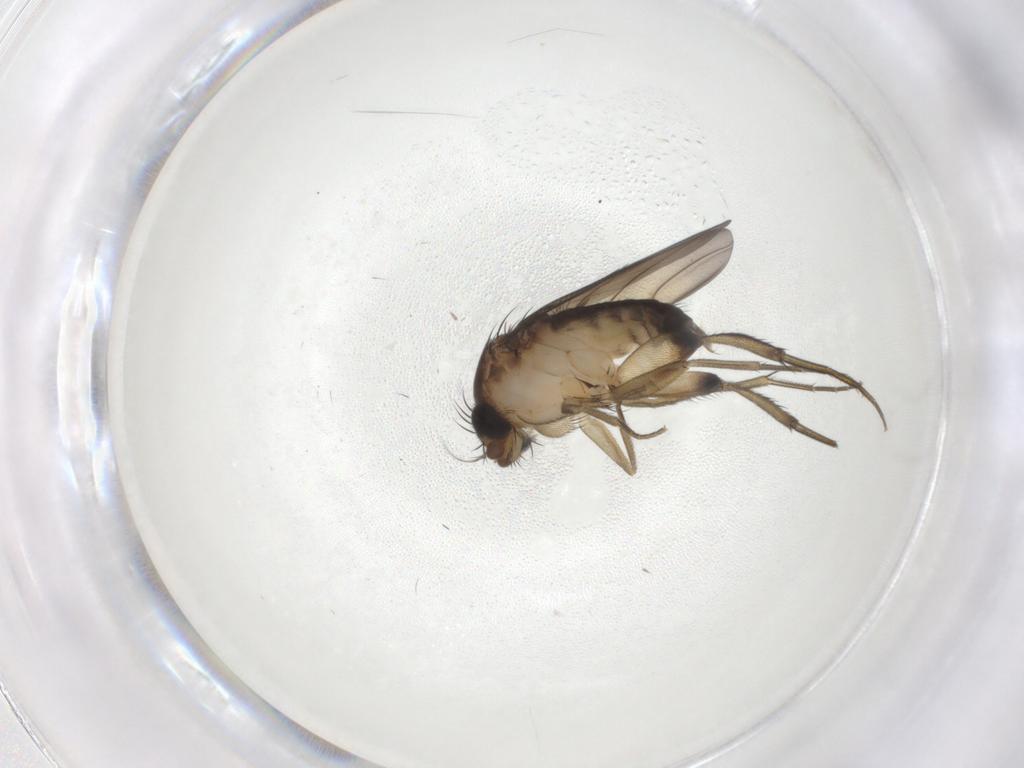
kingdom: Animalia
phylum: Arthropoda
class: Insecta
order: Diptera
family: Phoridae
